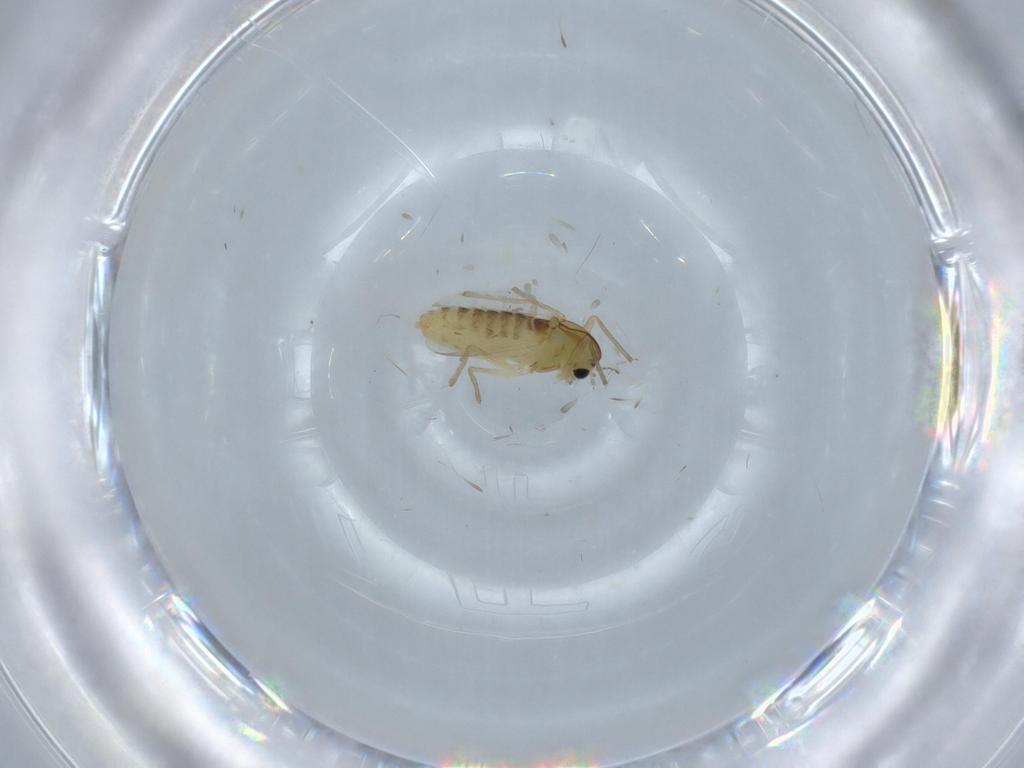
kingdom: Animalia
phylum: Arthropoda
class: Insecta
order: Diptera
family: Chironomidae
